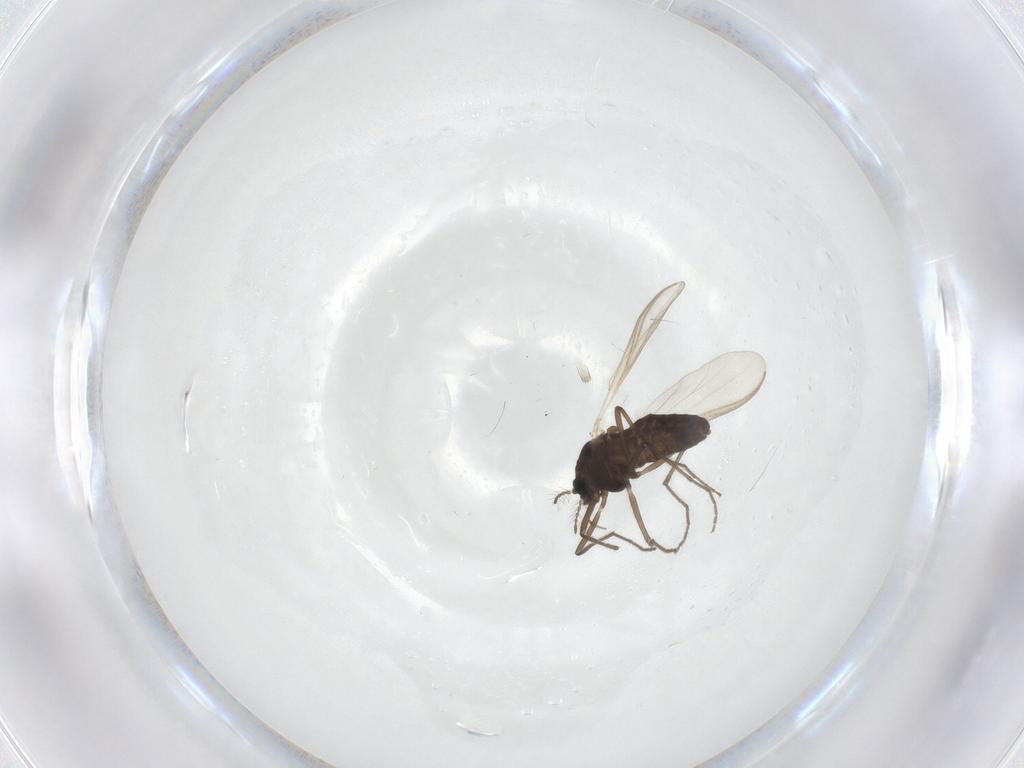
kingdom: Animalia
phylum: Arthropoda
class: Insecta
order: Diptera
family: Chironomidae
